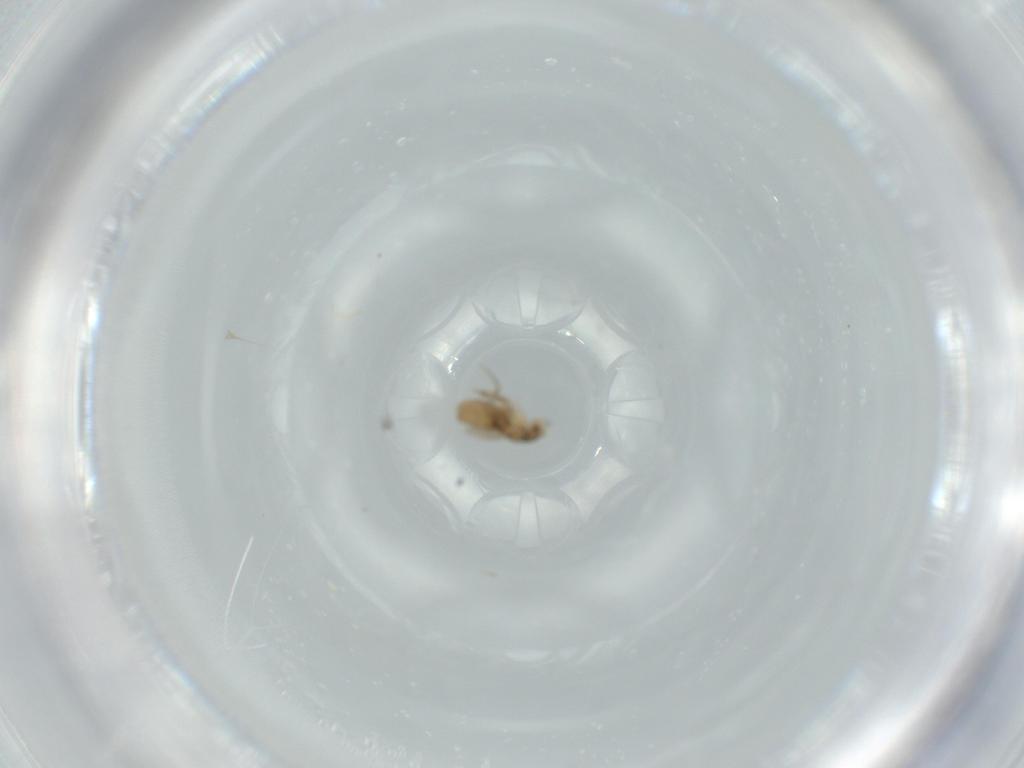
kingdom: Animalia
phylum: Arthropoda
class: Insecta
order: Diptera
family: Phoridae
